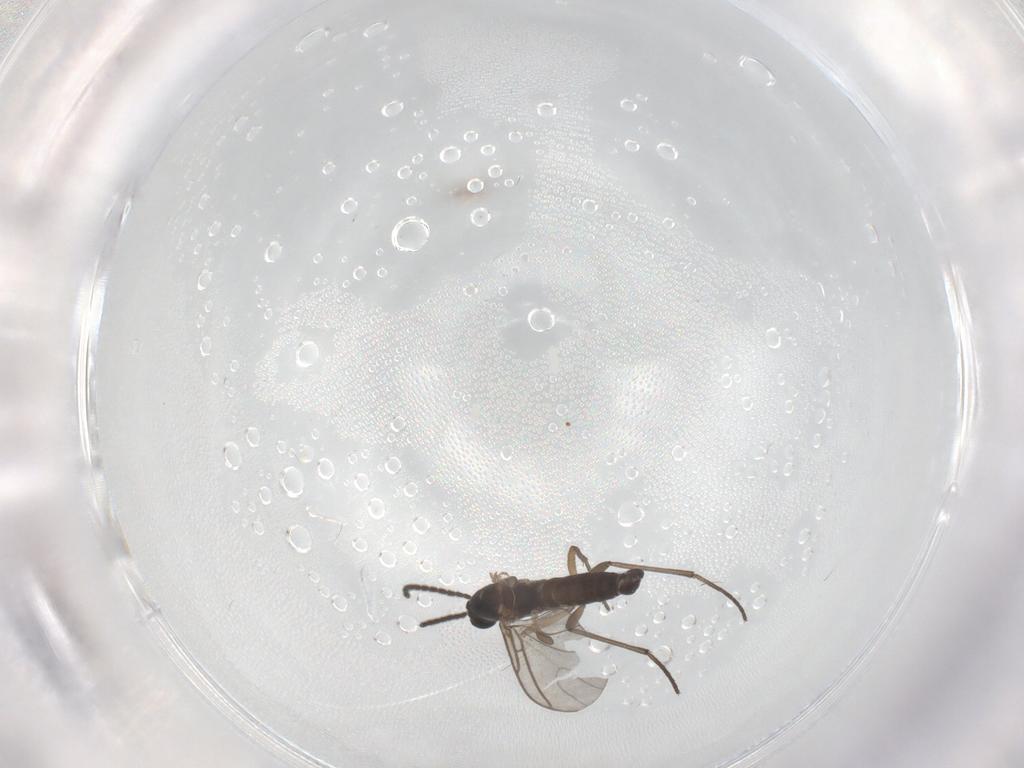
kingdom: Animalia
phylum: Arthropoda
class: Insecta
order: Diptera
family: Sciaridae
